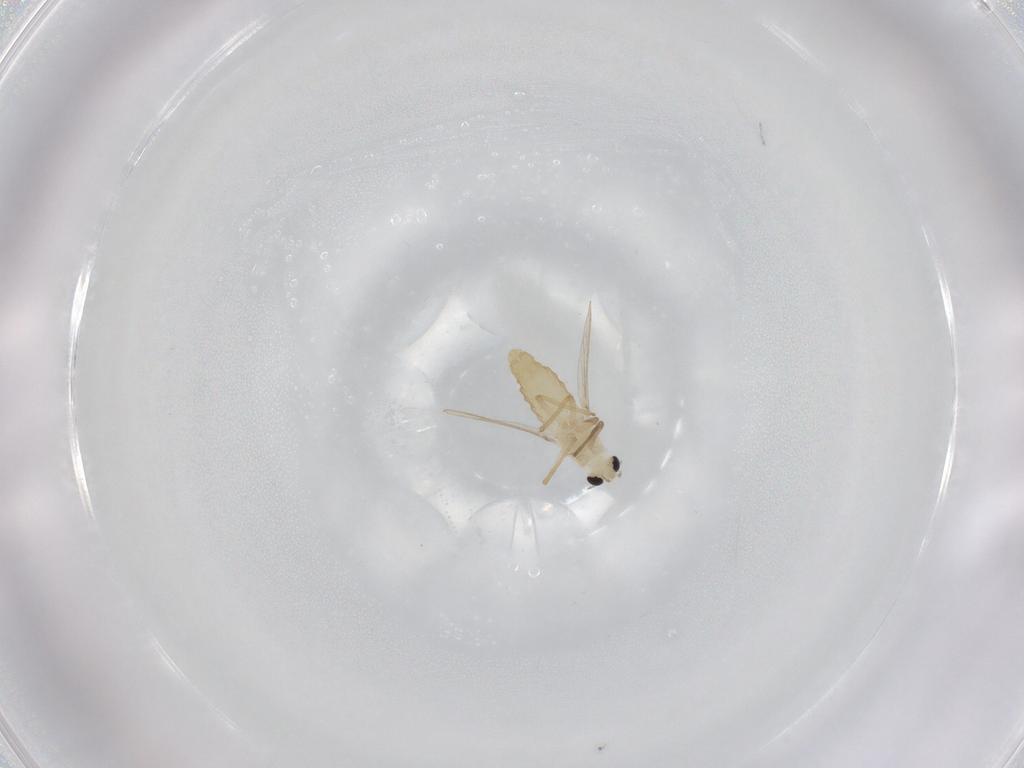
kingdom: Animalia
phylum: Arthropoda
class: Insecta
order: Diptera
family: Chironomidae
